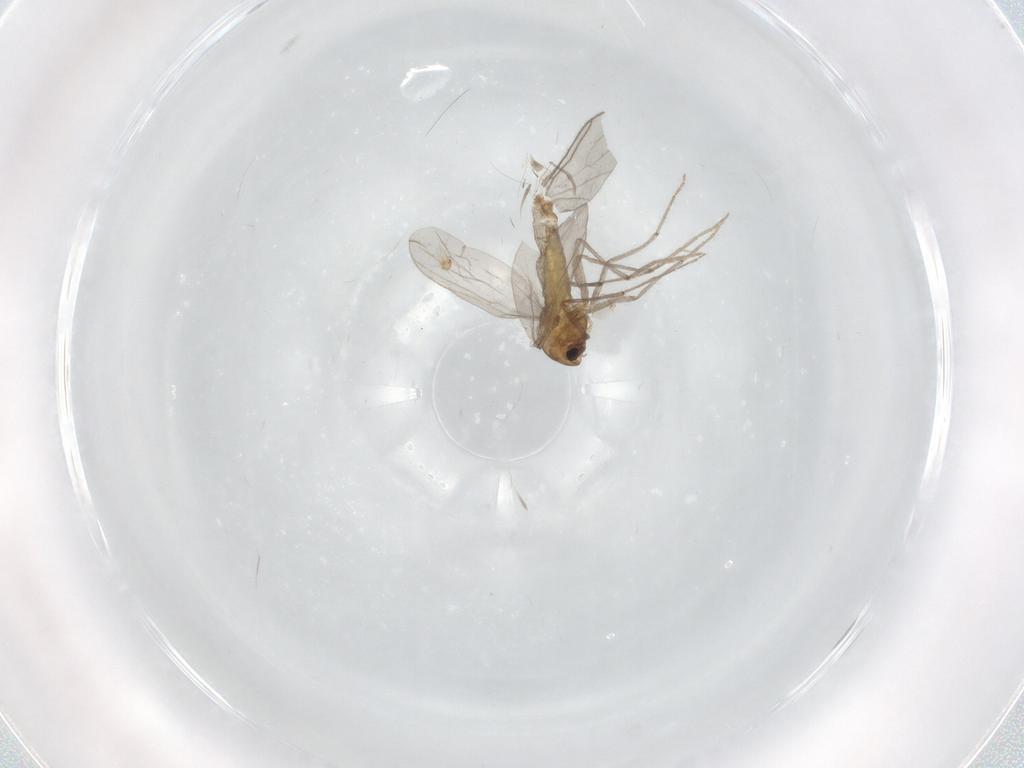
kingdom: Animalia
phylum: Arthropoda
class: Insecta
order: Diptera
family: Chironomidae
